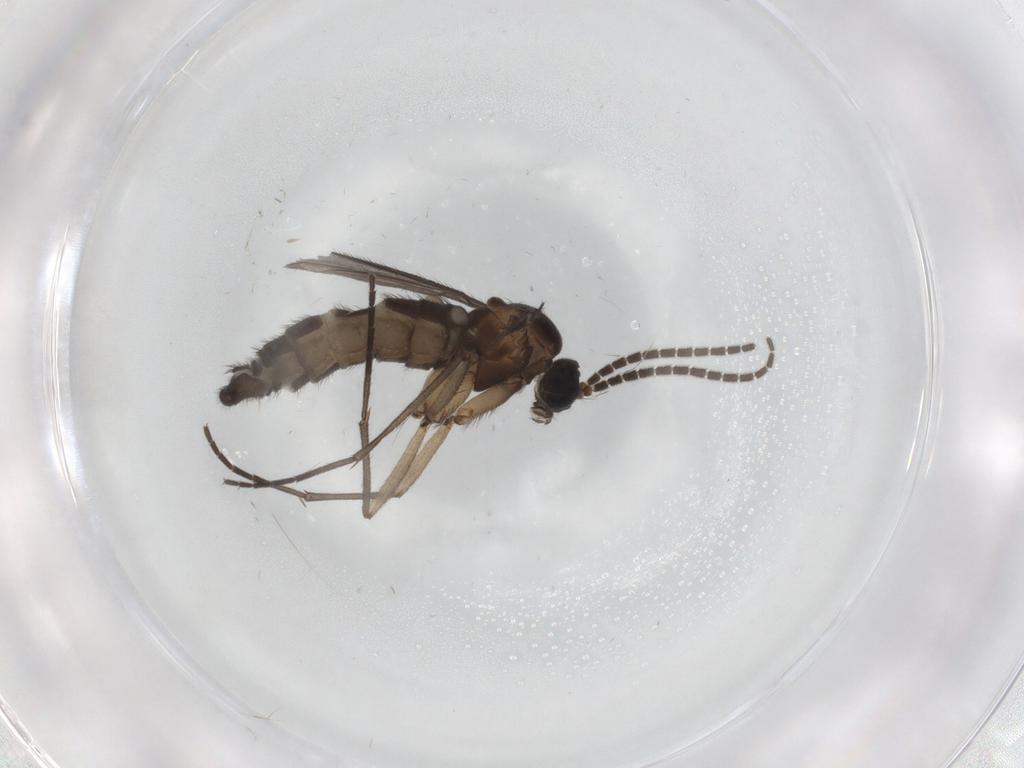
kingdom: Animalia
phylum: Arthropoda
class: Insecta
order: Diptera
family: Sciaridae
